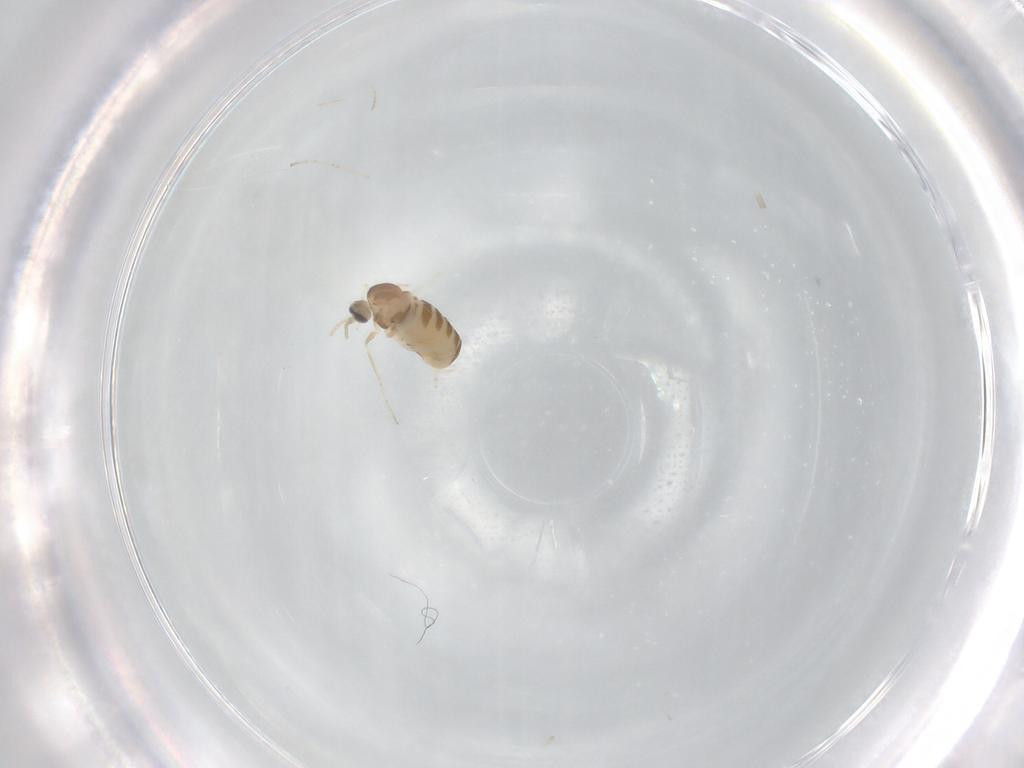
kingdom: Animalia
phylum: Arthropoda
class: Insecta
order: Diptera
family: Cecidomyiidae
